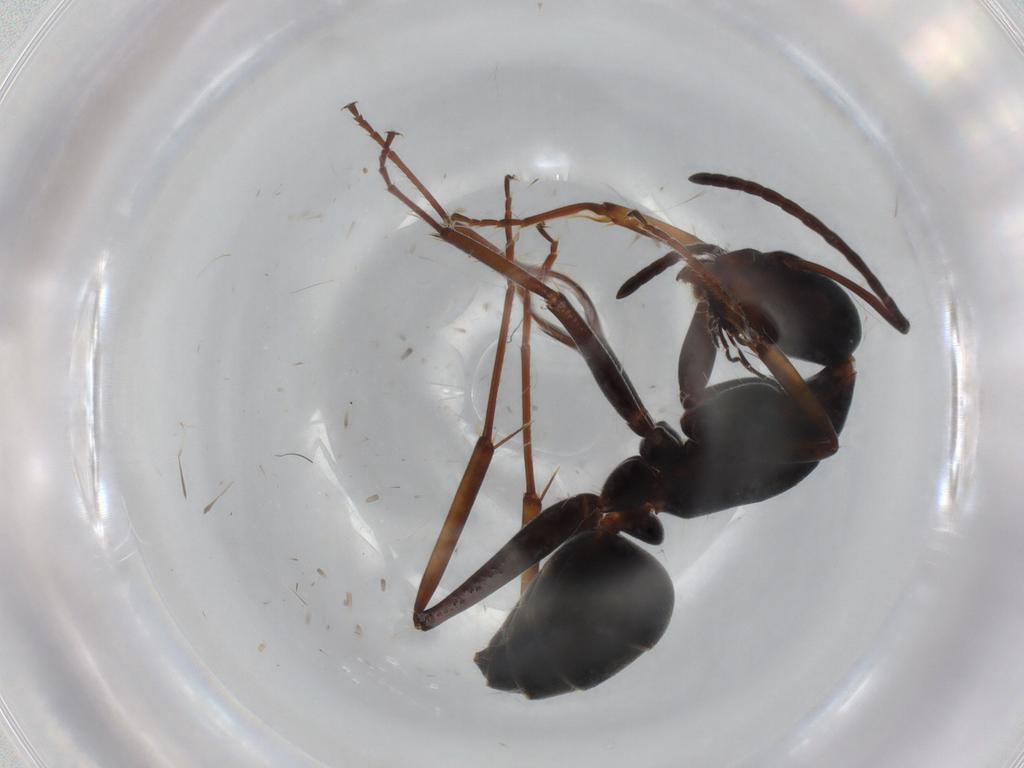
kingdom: Animalia
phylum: Arthropoda
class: Insecta
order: Hymenoptera
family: Formicidae
